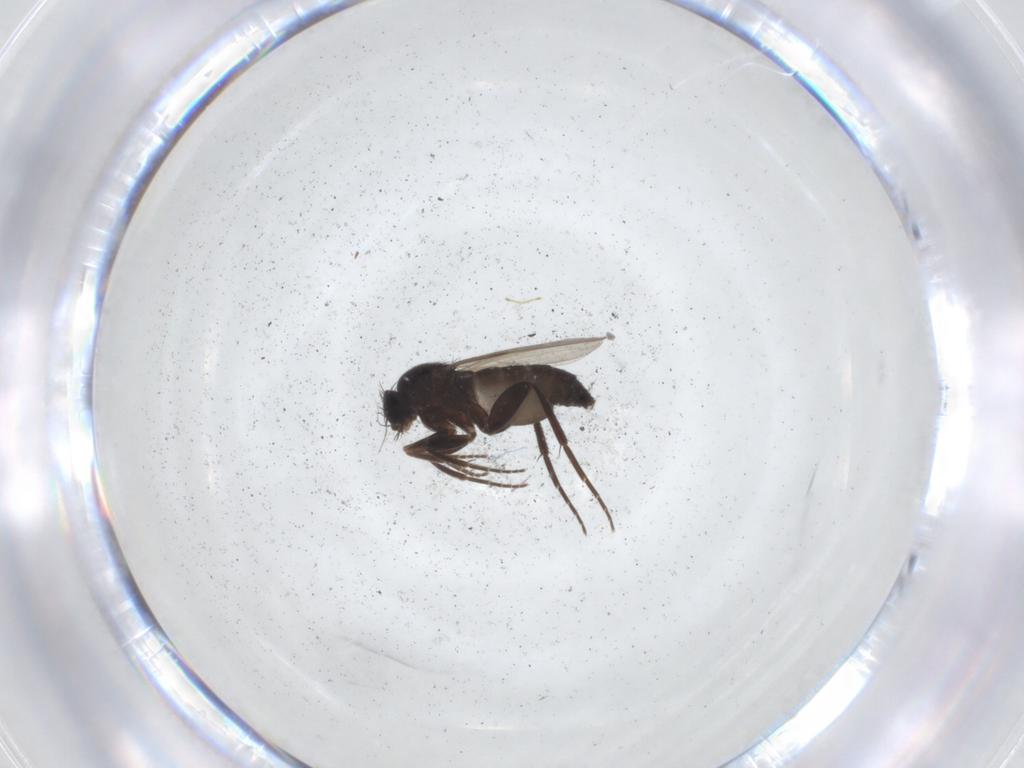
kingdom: Animalia
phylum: Arthropoda
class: Insecta
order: Diptera
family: Phoridae
